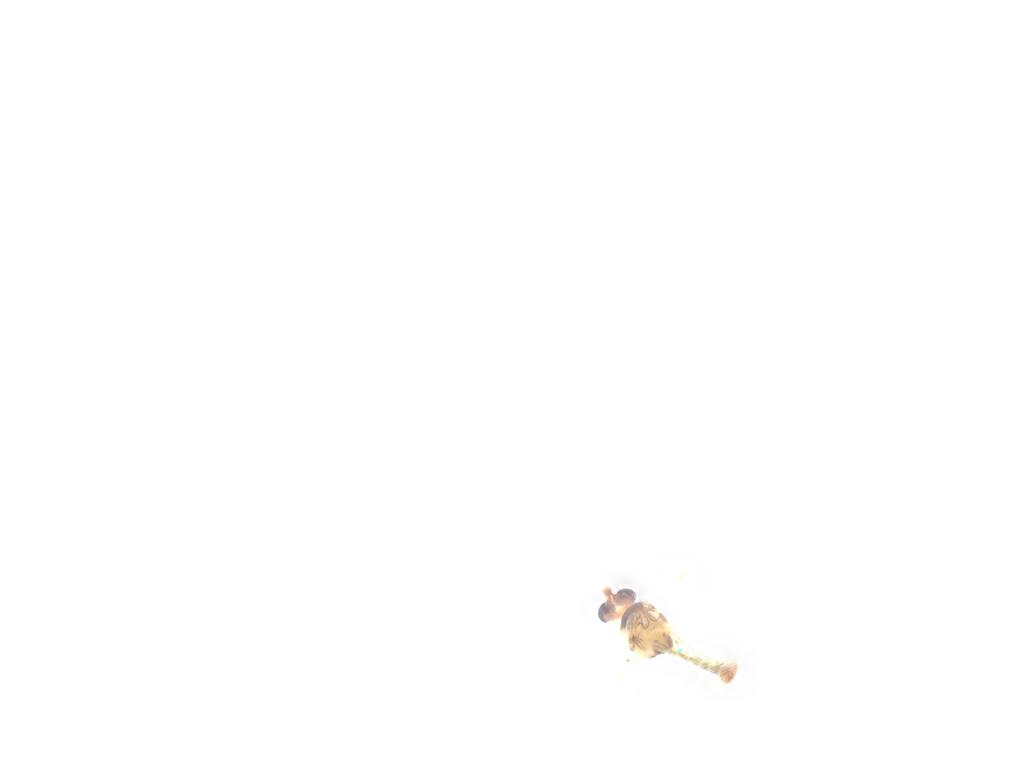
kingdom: Animalia
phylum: Arthropoda
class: Insecta
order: Diptera
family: Chironomidae
